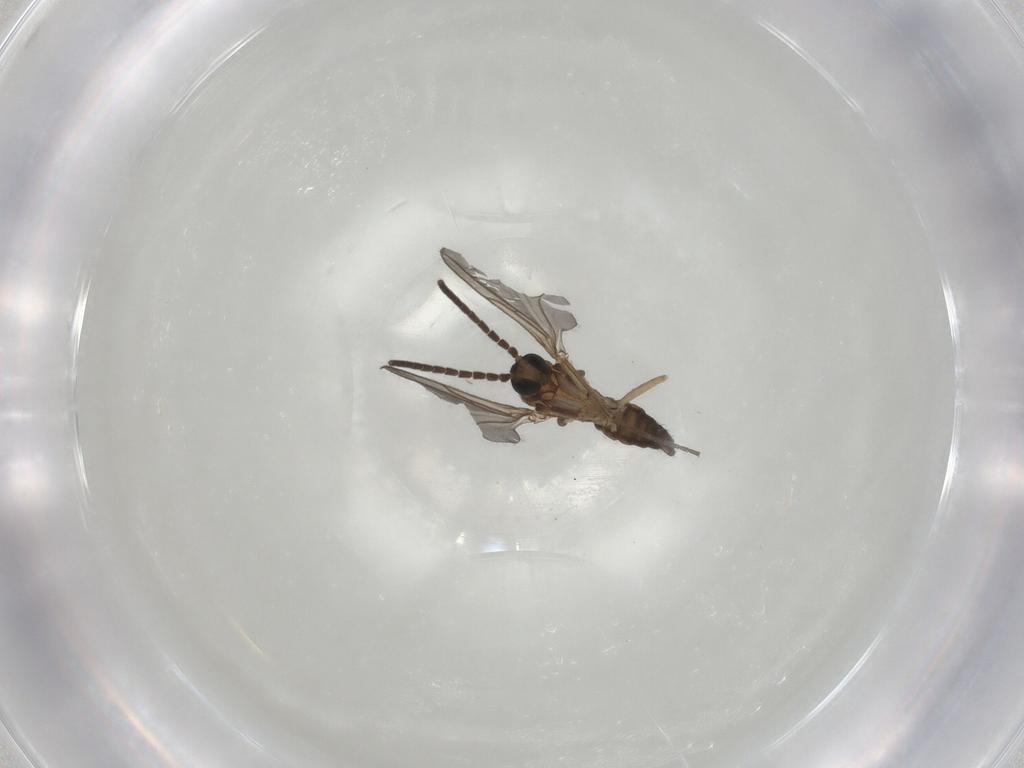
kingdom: Animalia
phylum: Arthropoda
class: Insecta
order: Diptera
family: Sciaridae
